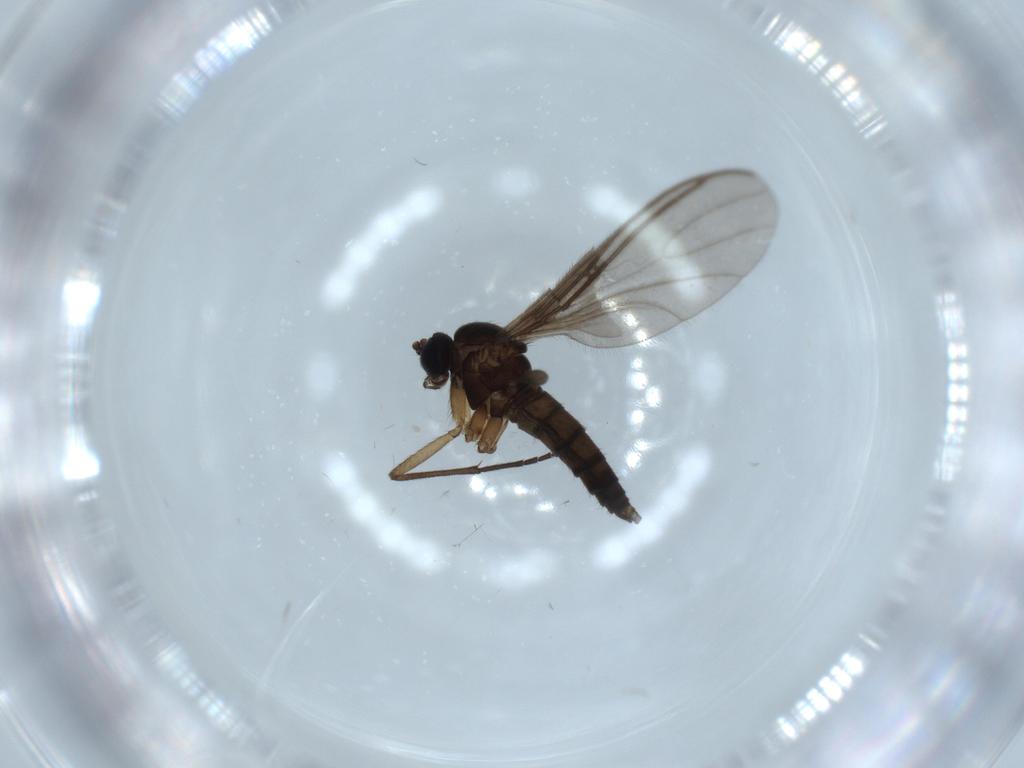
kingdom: Animalia
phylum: Arthropoda
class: Insecta
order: Diptera
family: Sciaridae
